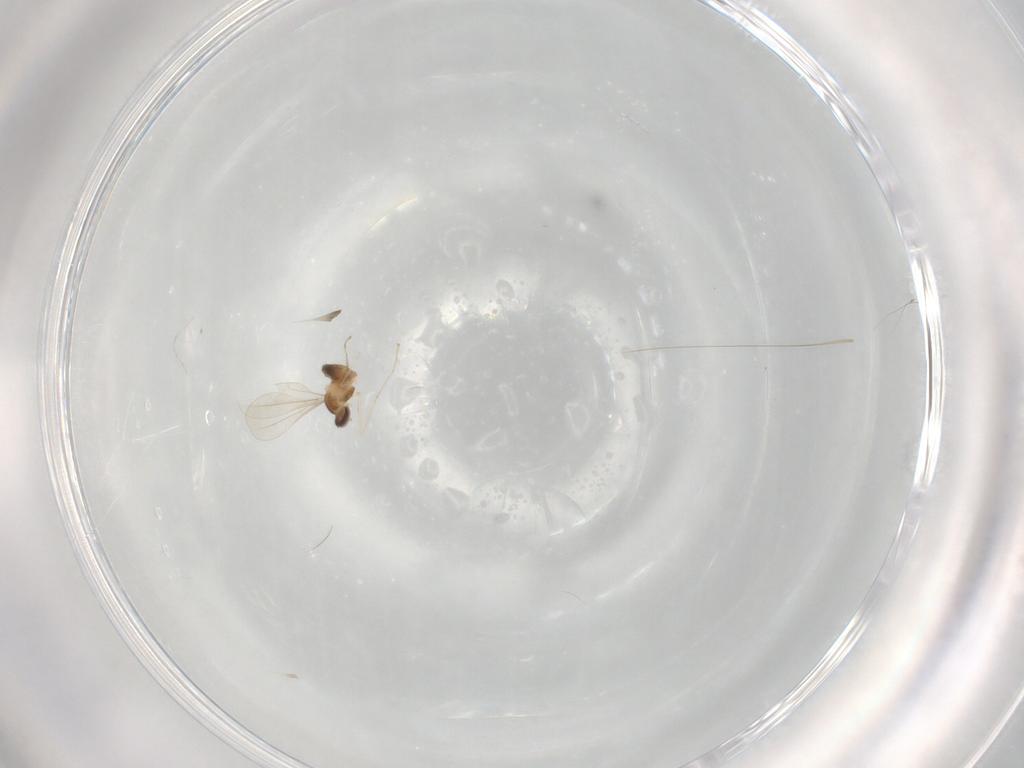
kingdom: Animalia
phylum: Arthropoda
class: Insecta
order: Diptera
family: Cecidomyiidae
